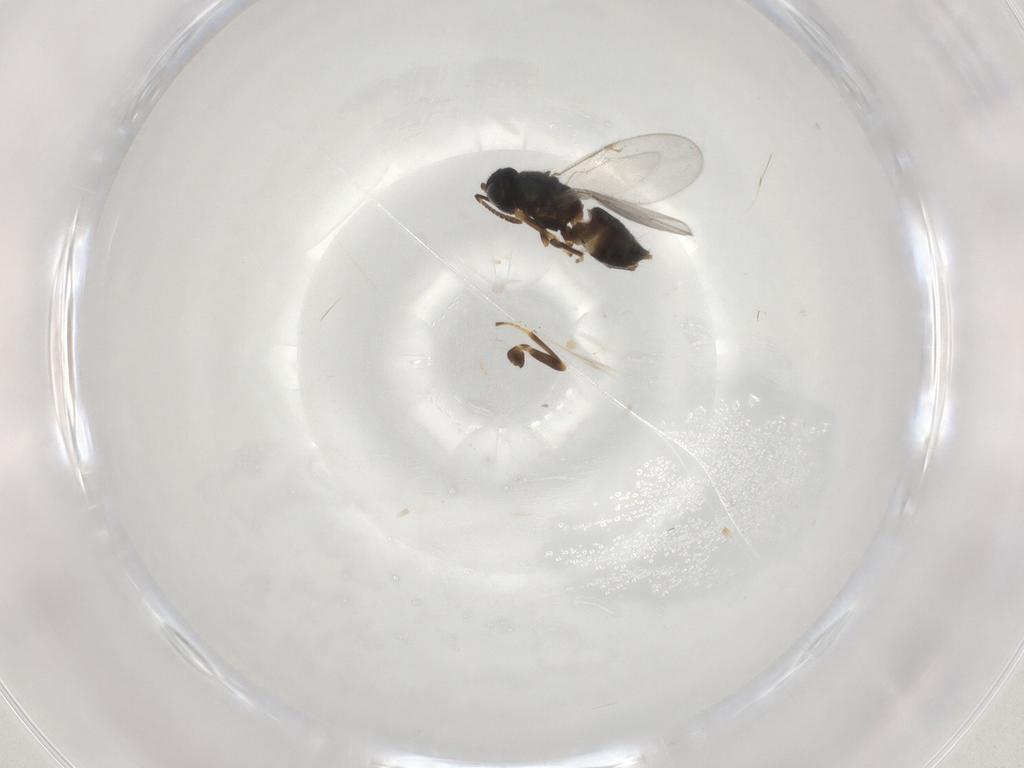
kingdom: Animalia
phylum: Arthropoda
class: Insecta
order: Hymenoptera
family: Encyrtidae
